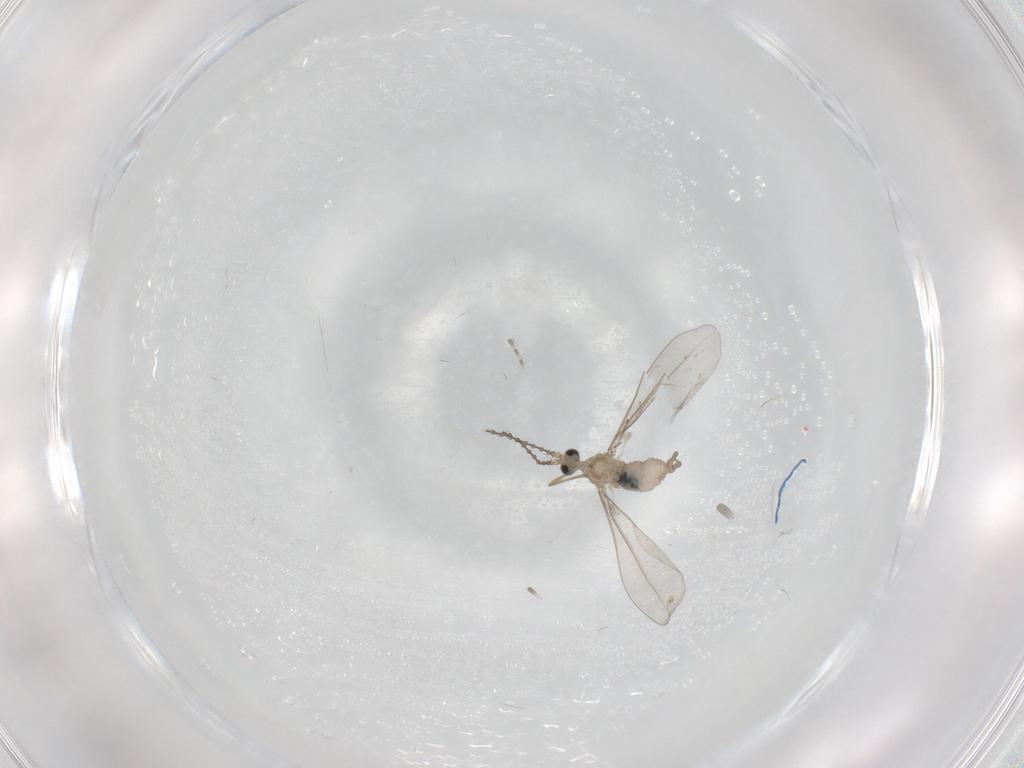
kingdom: Animalia
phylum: Arthropoda
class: Insecta
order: Diptera
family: Cecidomyiidae
